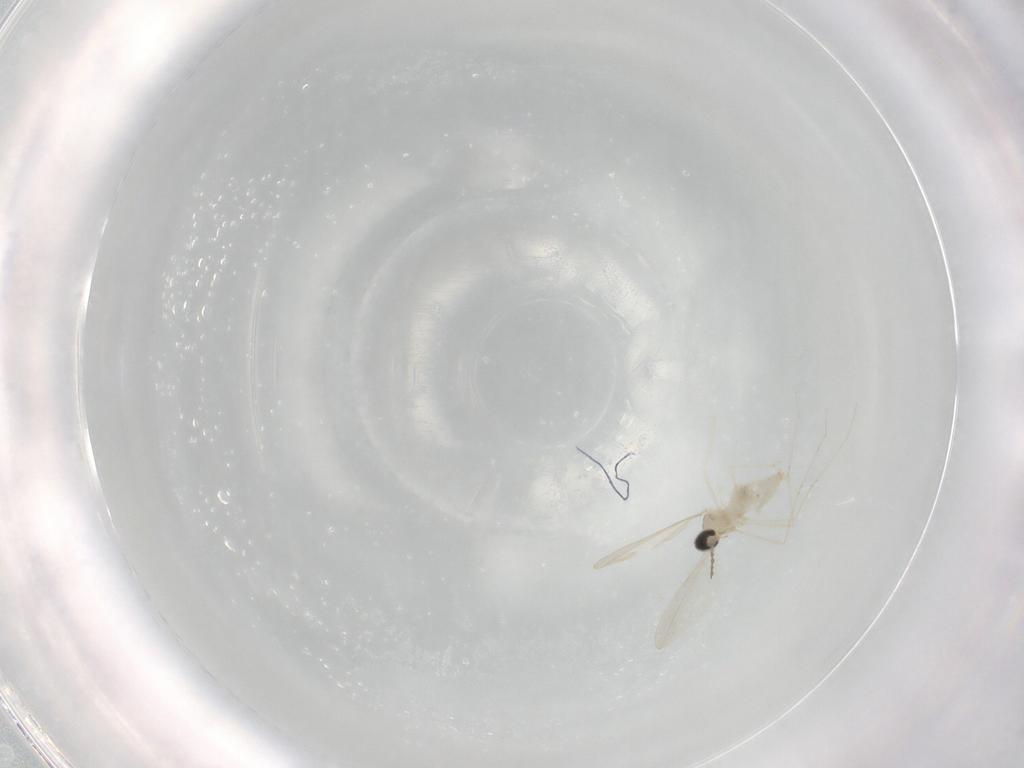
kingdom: Animalia
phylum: Arthropoda
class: Insecta
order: Diptera
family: Cecidomyiidae
